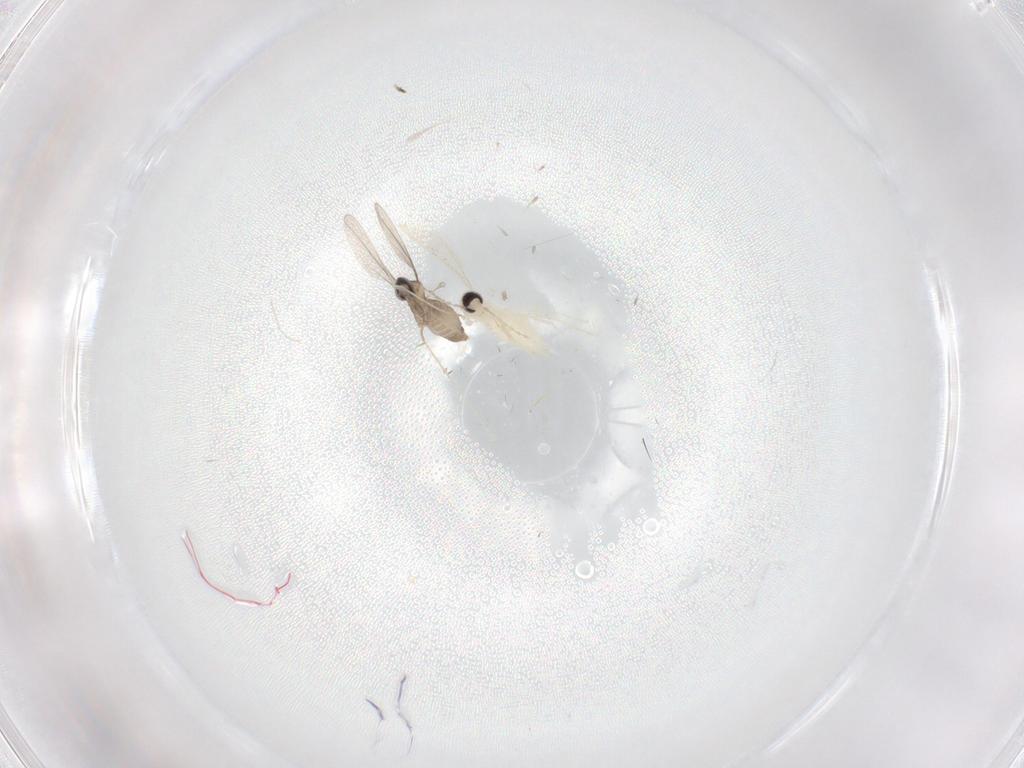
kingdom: Animalia
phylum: Arthropoda
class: Insecta
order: Diptera
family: Cecidomyiidae
